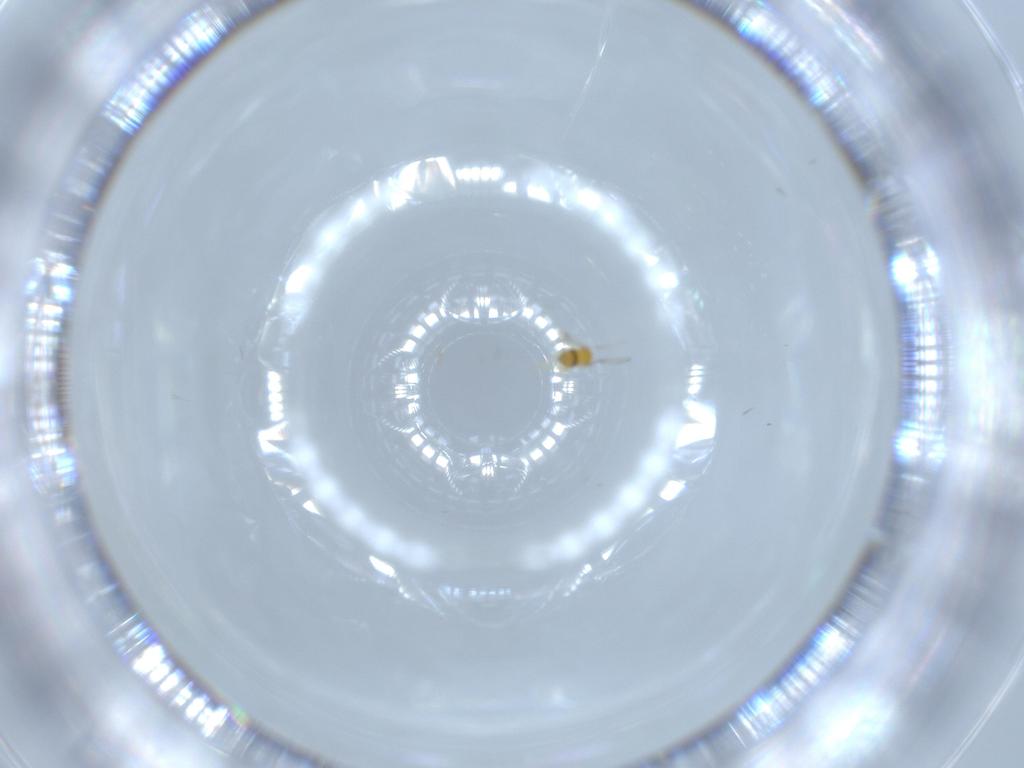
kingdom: Animalia
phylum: Arthropoda
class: Insecta
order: Hymenoptera
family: Trichogrammatidae
